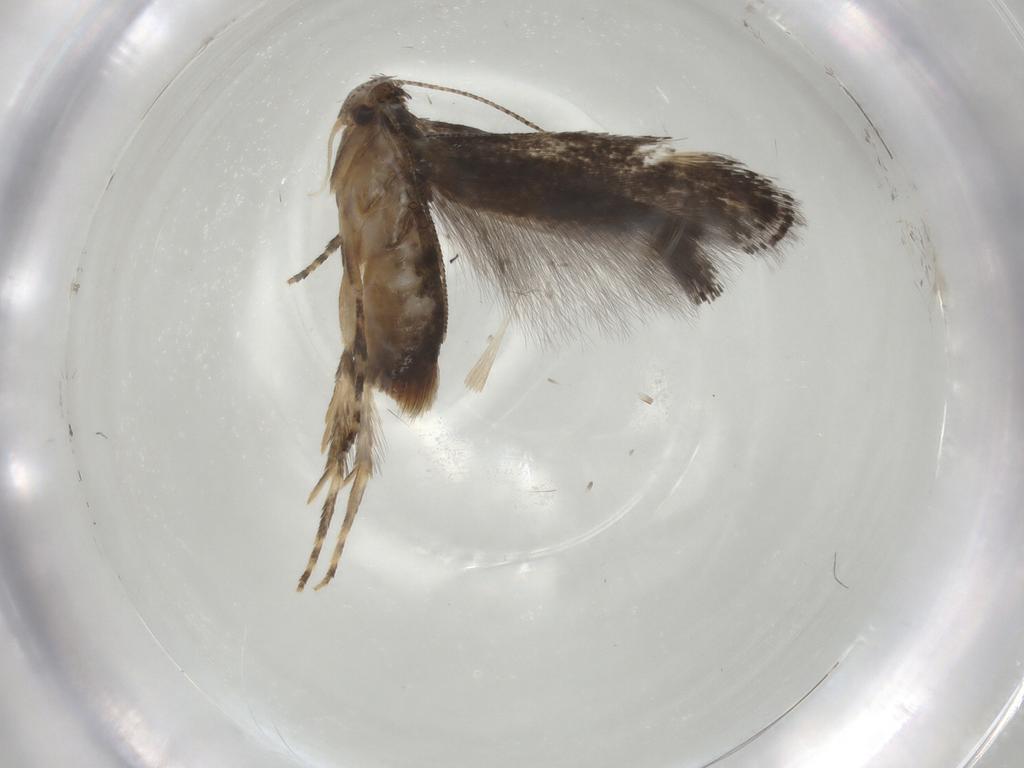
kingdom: Animalia
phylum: Arthropoda
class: Insecta
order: Lepidoptera
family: Elachistidae
